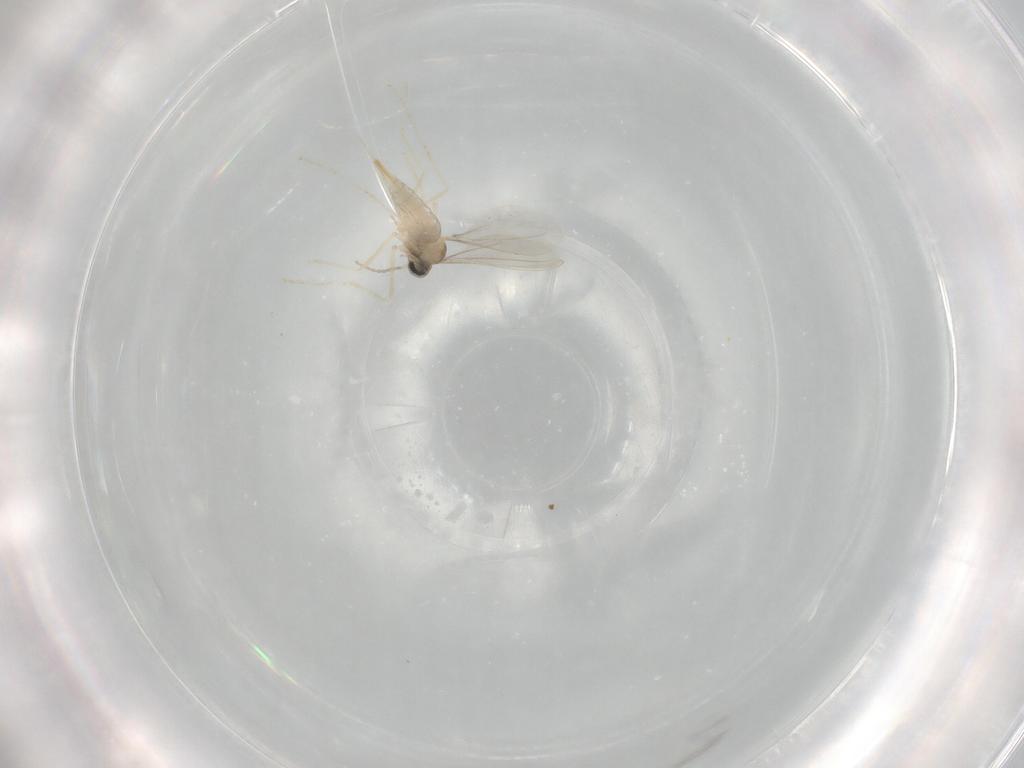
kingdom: Animalia
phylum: Arthropoda
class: Insecta
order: Diptera
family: Cecidomyiidae
